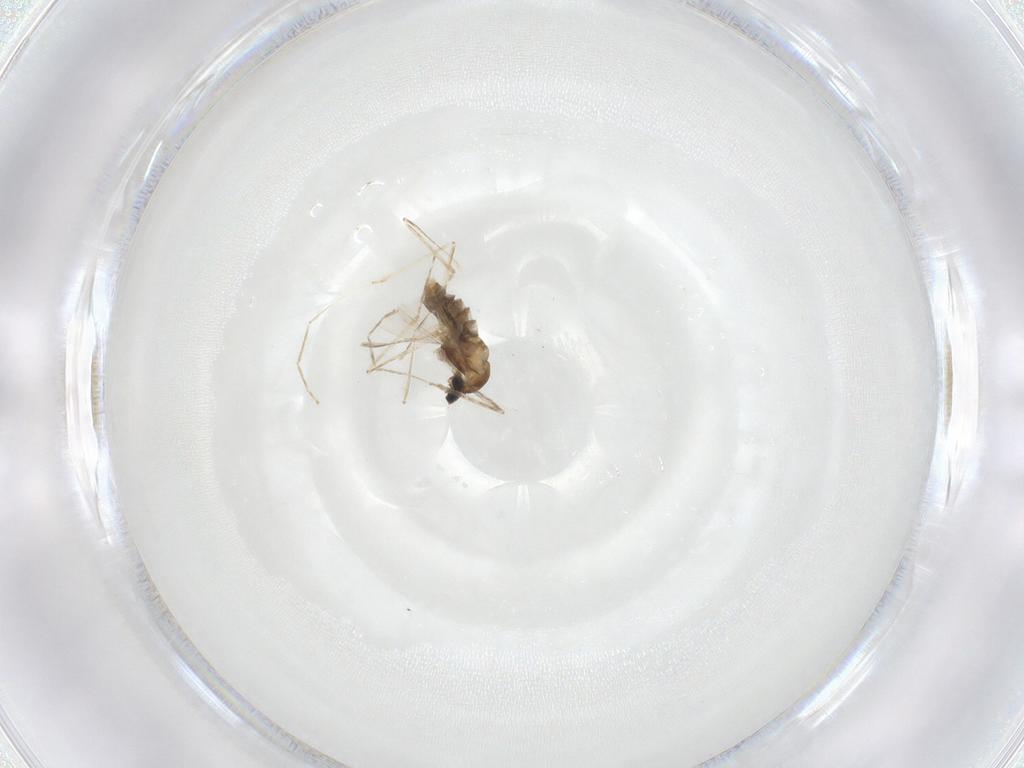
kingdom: Animalia
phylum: Arthropoda
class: Insecta
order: Diptera
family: Cecidomyiidae
